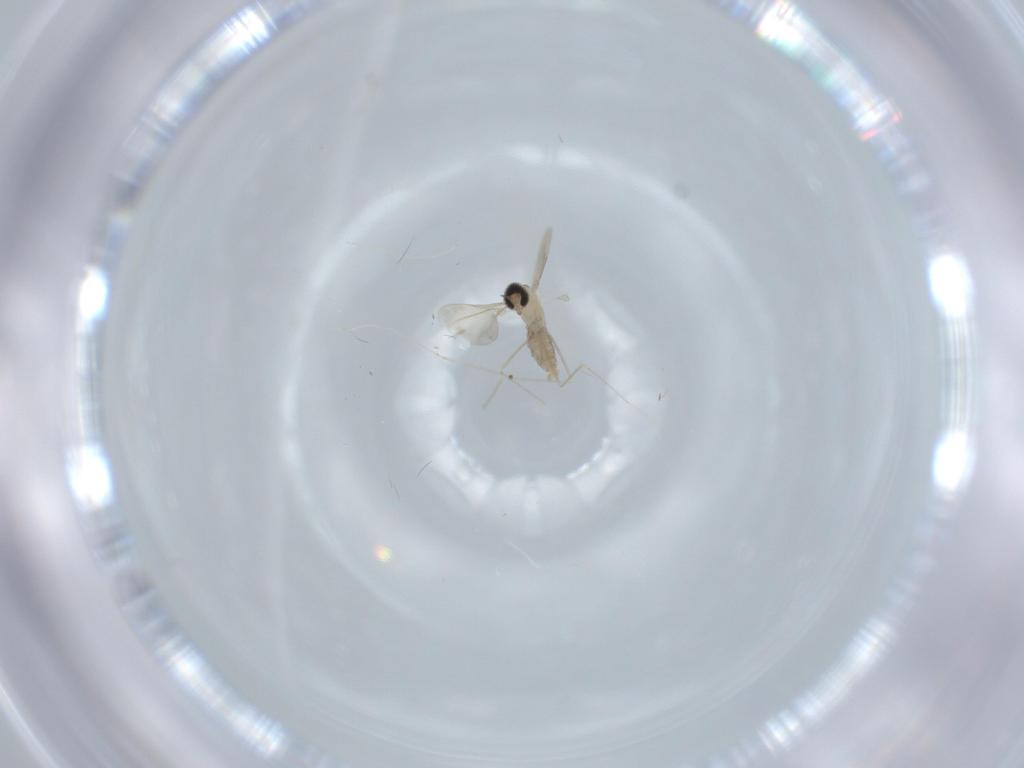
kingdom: Animalia
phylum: Arthropoda
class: Insecta
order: Diptera
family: Cecidomyiidae
